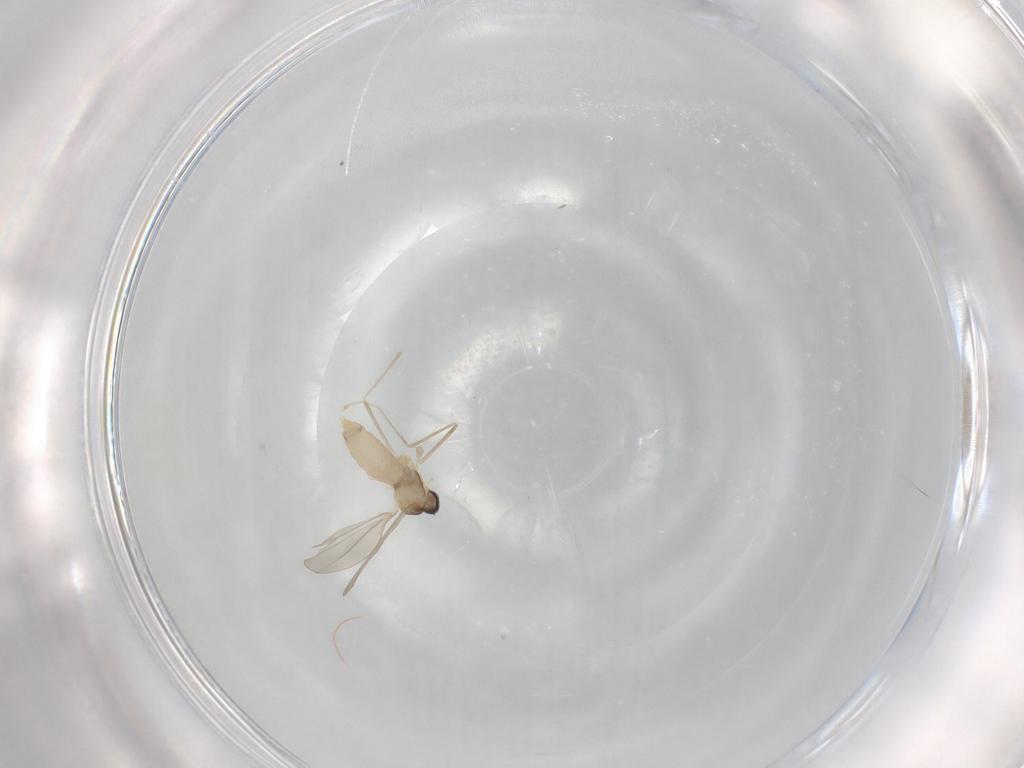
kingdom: Animalia
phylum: Arthropoda
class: Insecta
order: Diptera
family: Cecidomyiidae
